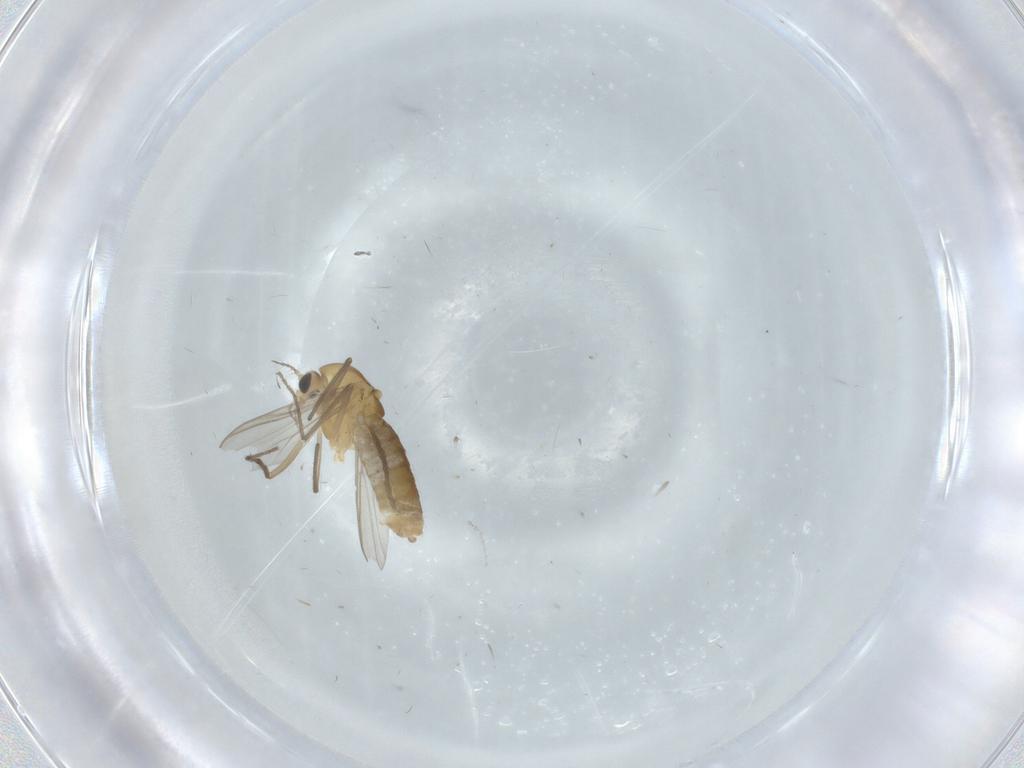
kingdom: Animalia
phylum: Arthropoda
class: Insecta
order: Diptera
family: Chironomidae
